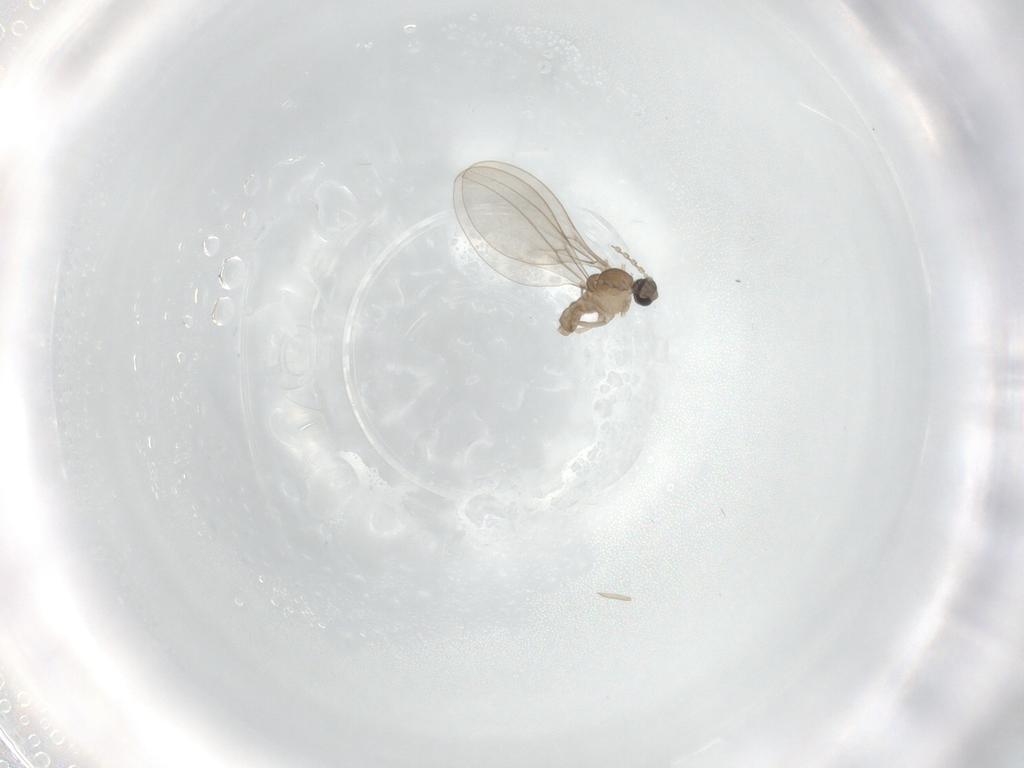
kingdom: Animalia
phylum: Arthropoda
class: Insecta
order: Diptera
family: Cecidomyiidae
